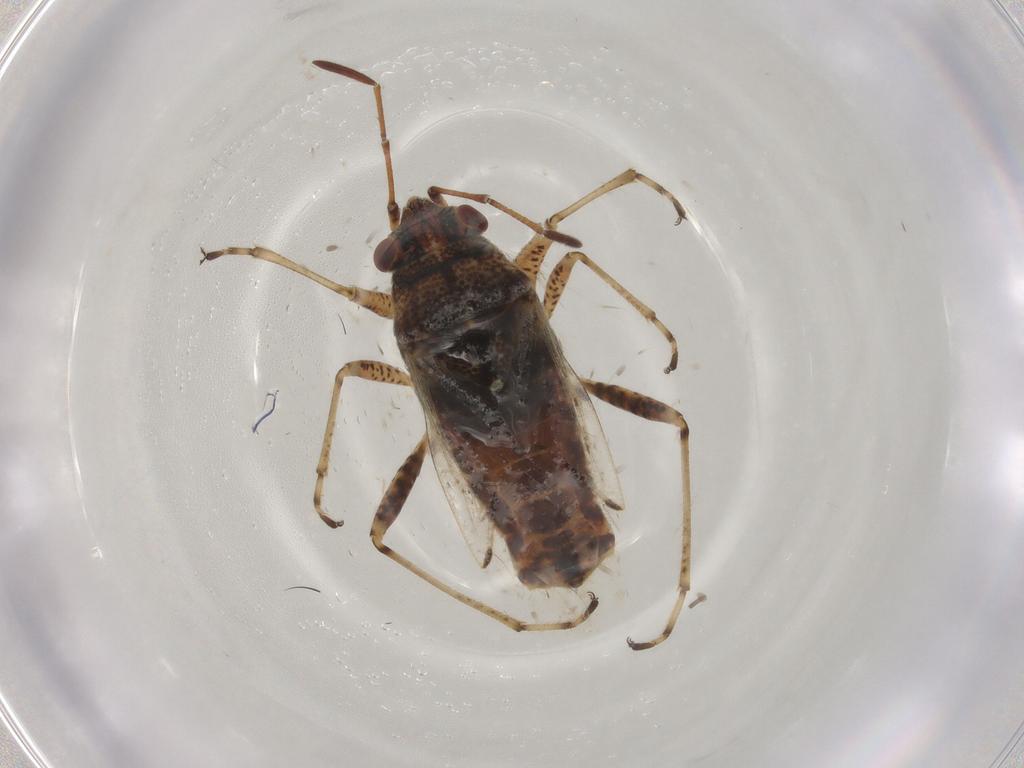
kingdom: Animalia
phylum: Arthropoda
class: Insecta
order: Hemiptera
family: Lygaeidae
